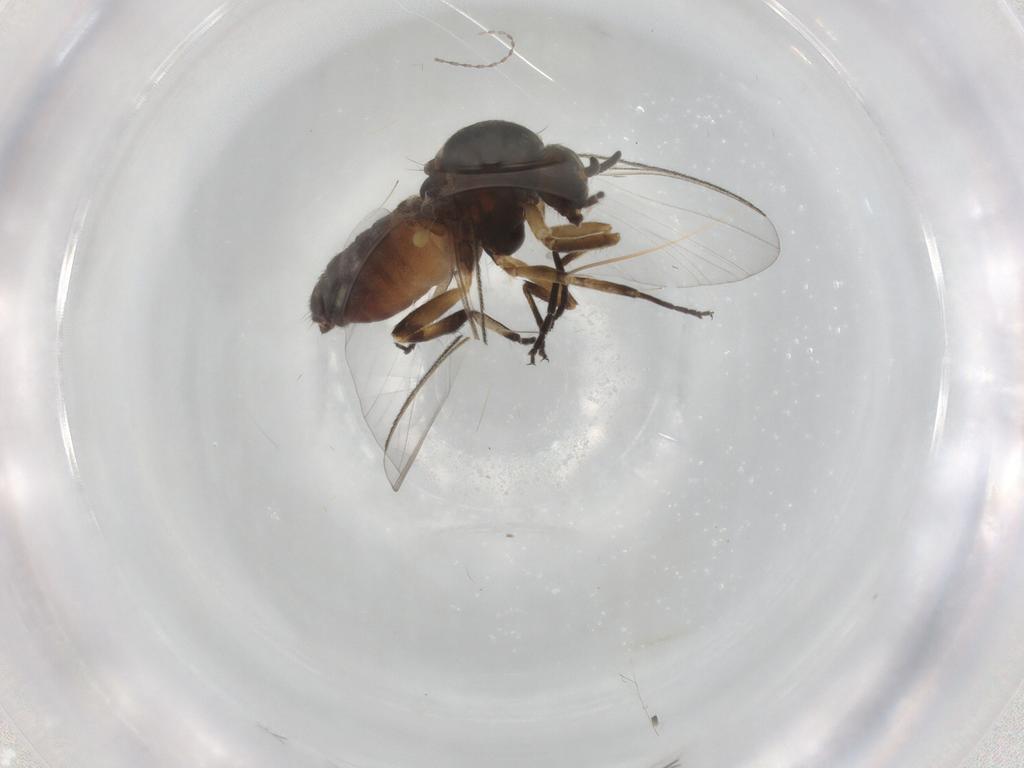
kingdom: Animalia
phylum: Arthropoda
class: Insecta
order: Diptera
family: Muscidae
